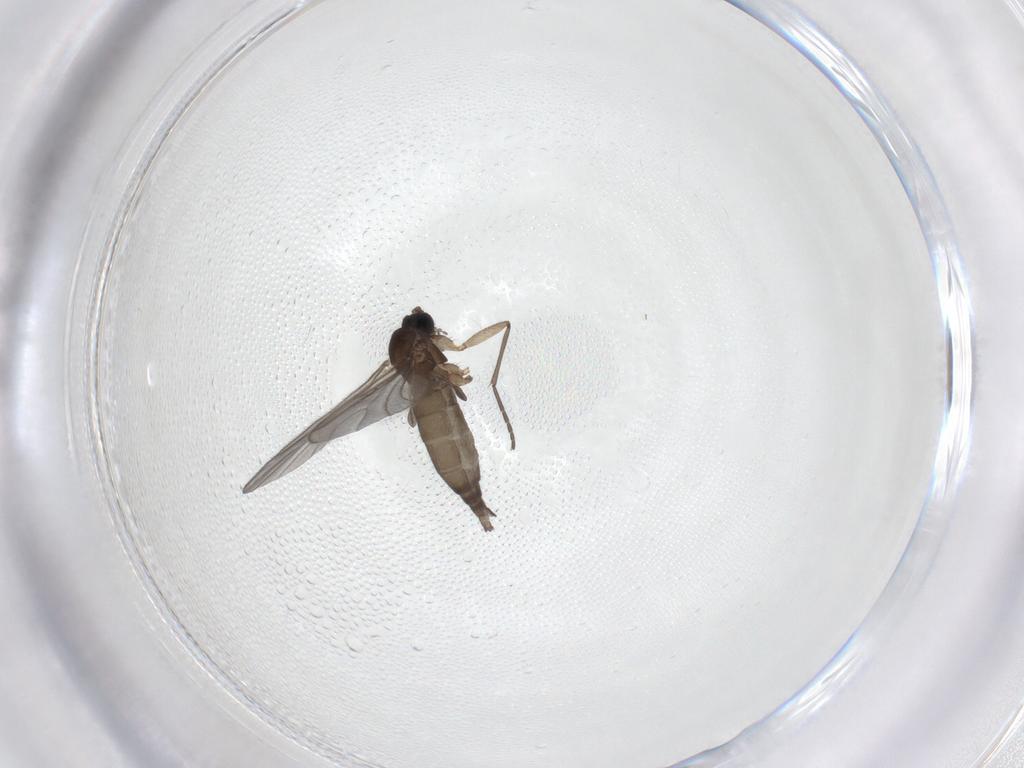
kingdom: Animalia
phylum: Arthropoda
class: Insecta
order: Diptera
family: Sciaridae
